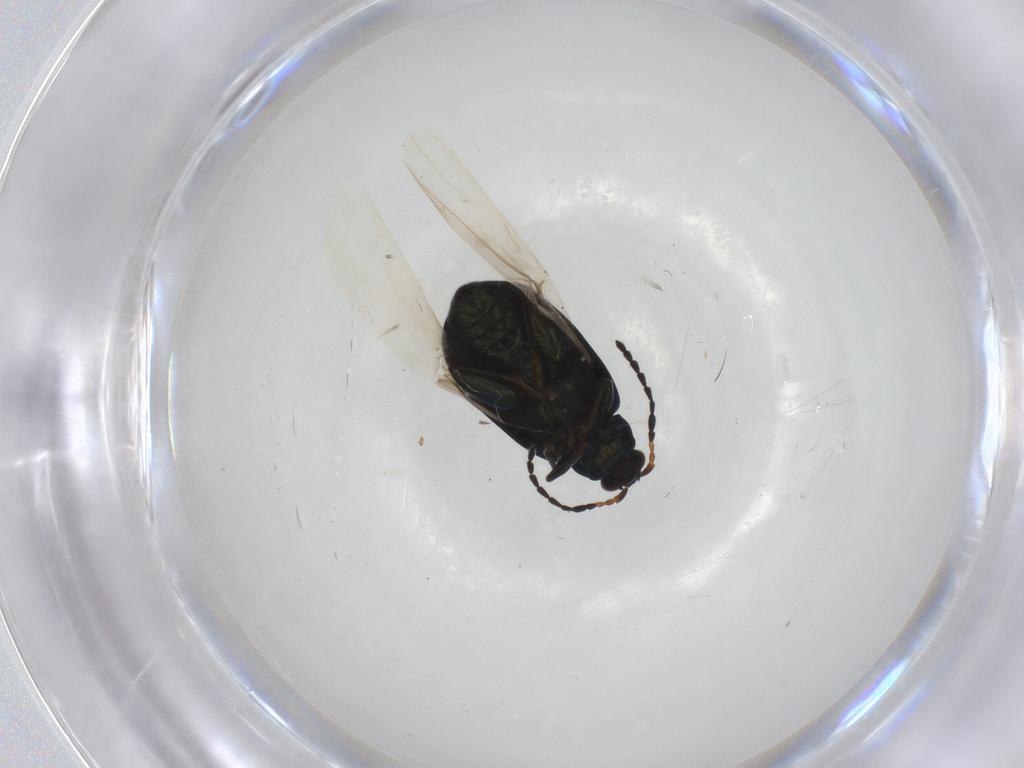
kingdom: Animalia
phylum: Arthropoda
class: Insecta
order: Coleoptera
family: Chrysomelidae
